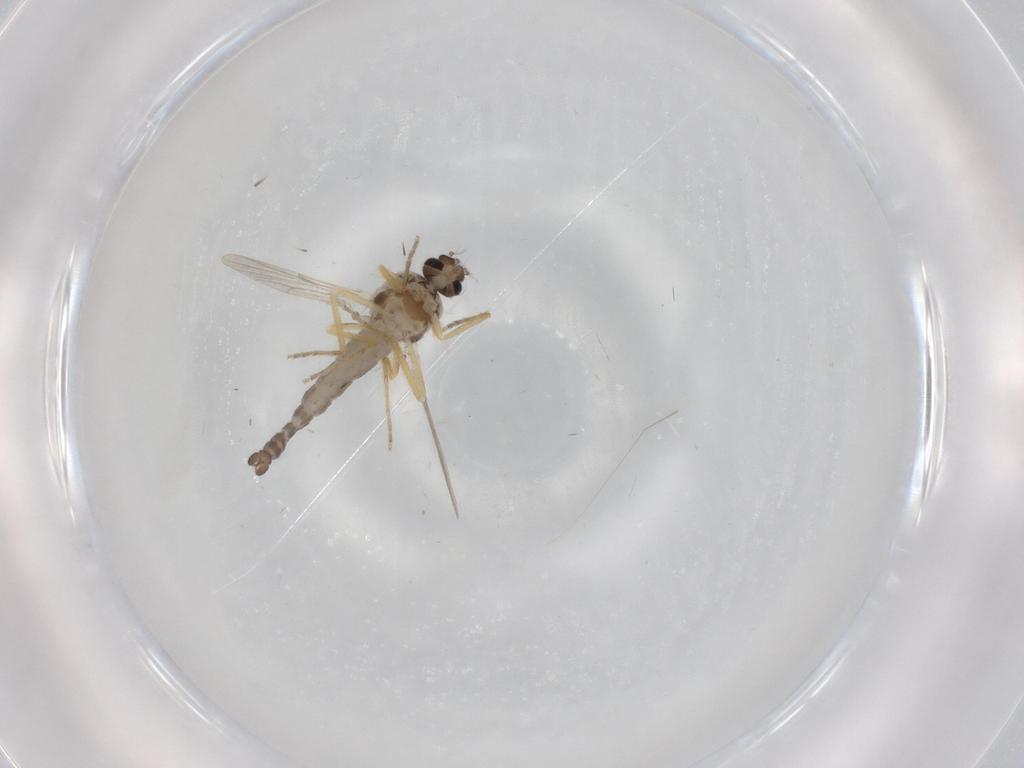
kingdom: Animalia
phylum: Arthropoda
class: Insecta
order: Diptera
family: Ceratopogonidae
